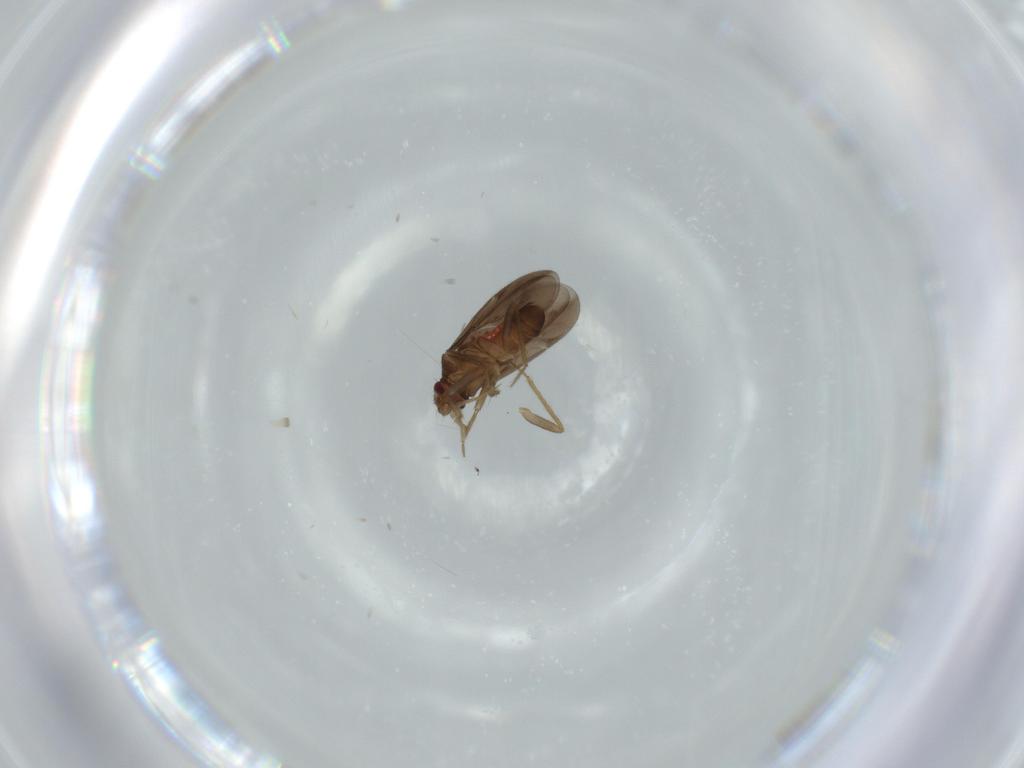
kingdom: Animalia
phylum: Arthropoda
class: Insecta
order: Hemiptera
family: Ceratocombidae
